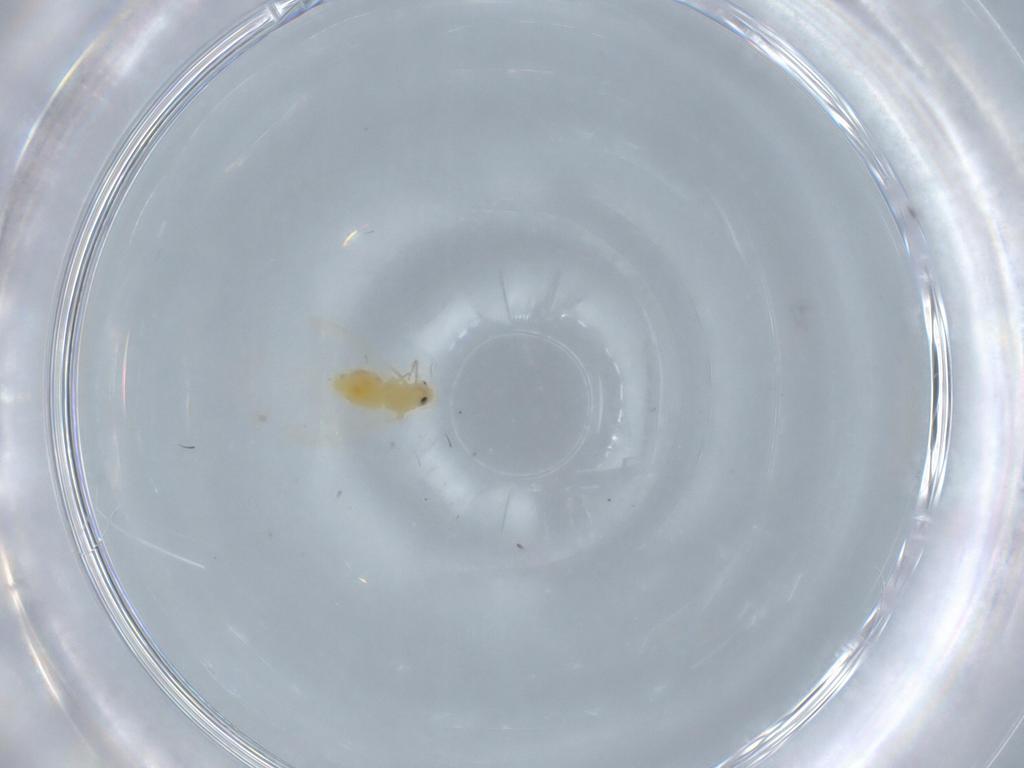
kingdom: Animalia
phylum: Arthropoda
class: Insecta
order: Hemiptera
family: Aleyrodidae
